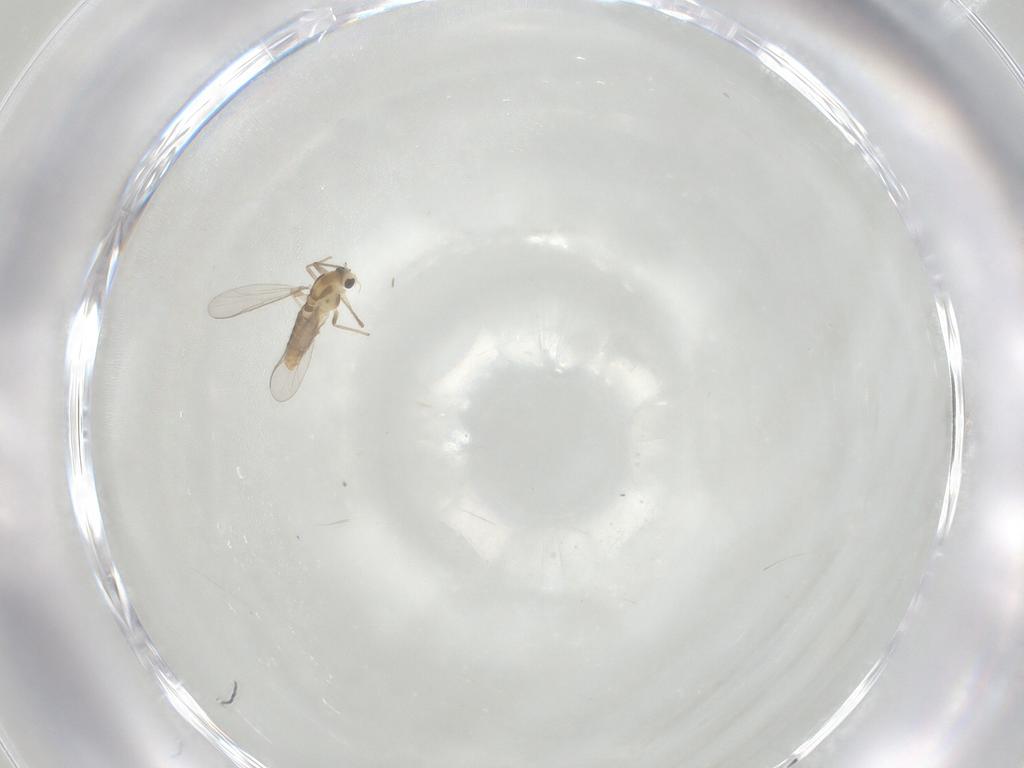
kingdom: Animalia
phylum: Arthropoda
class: Insecta
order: Diptera
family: Chironomidae
